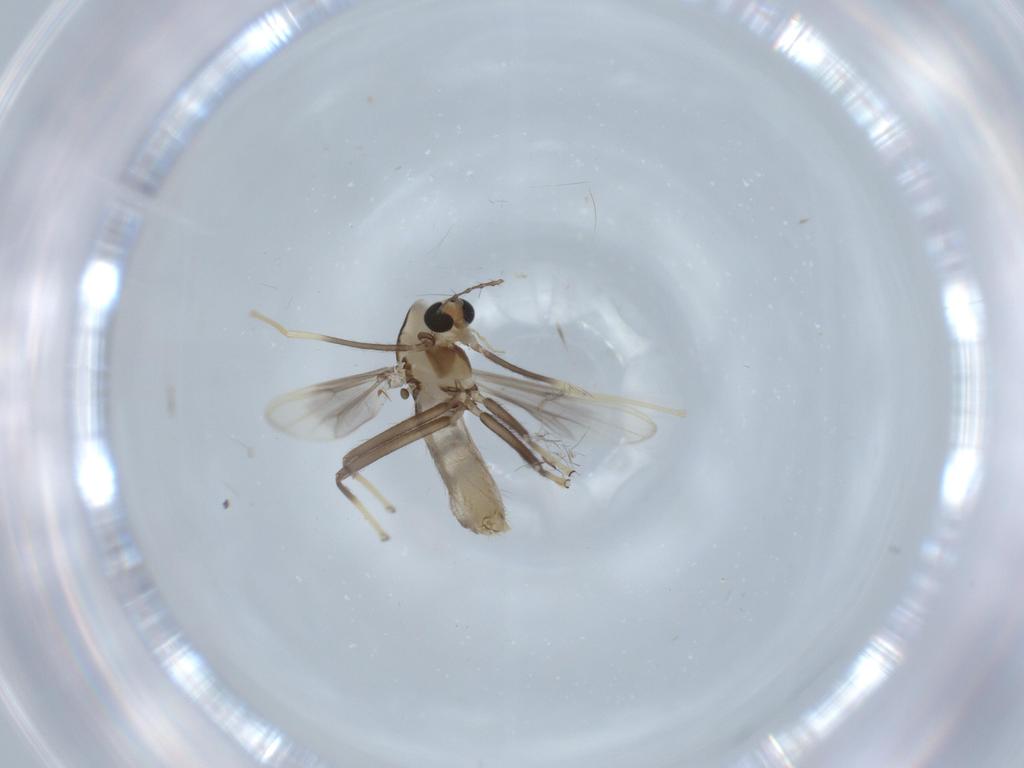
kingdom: Animalia
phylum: Arthropoda
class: Insecta
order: Diptera
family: Chironomidae
